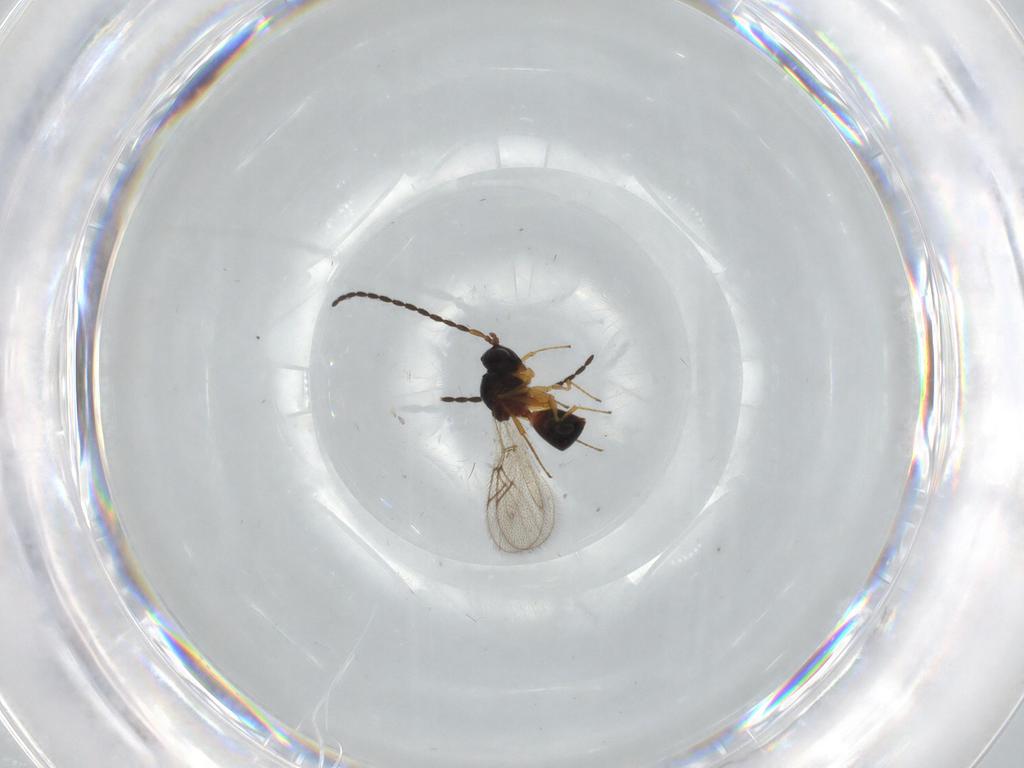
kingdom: Animalia
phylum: Arthropoda
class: Insecta
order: Hymenoptera
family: Figitidae
